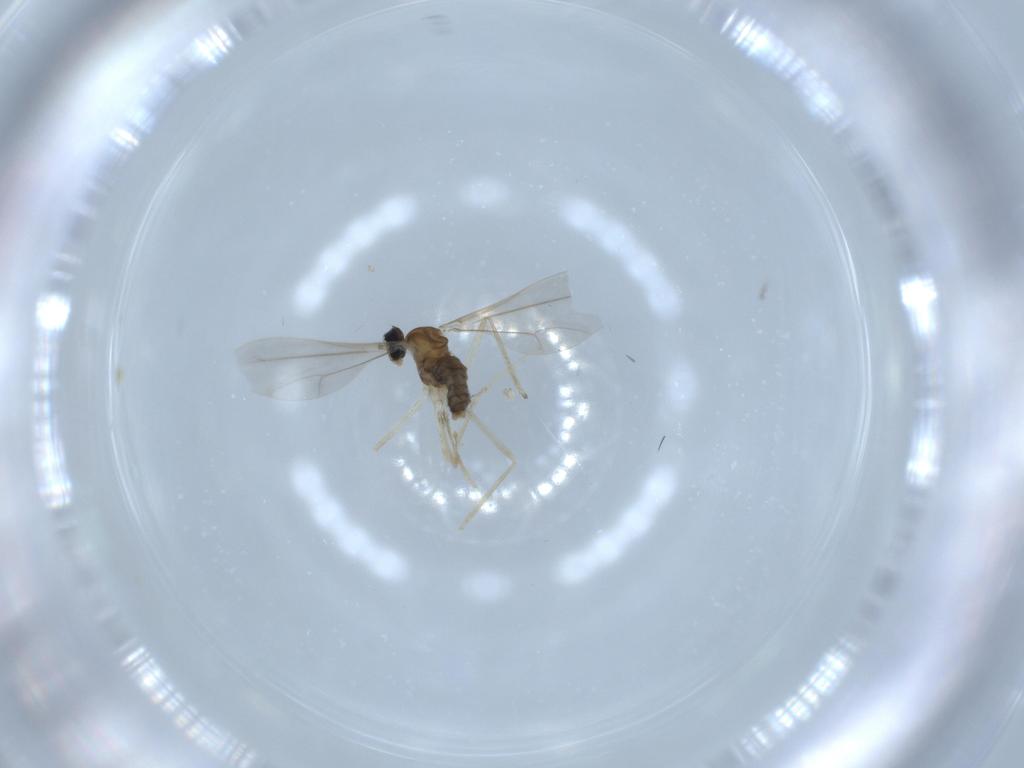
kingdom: Animalia
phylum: Arthropoda
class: Insecta
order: Diptera
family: Cecidomyiidae
